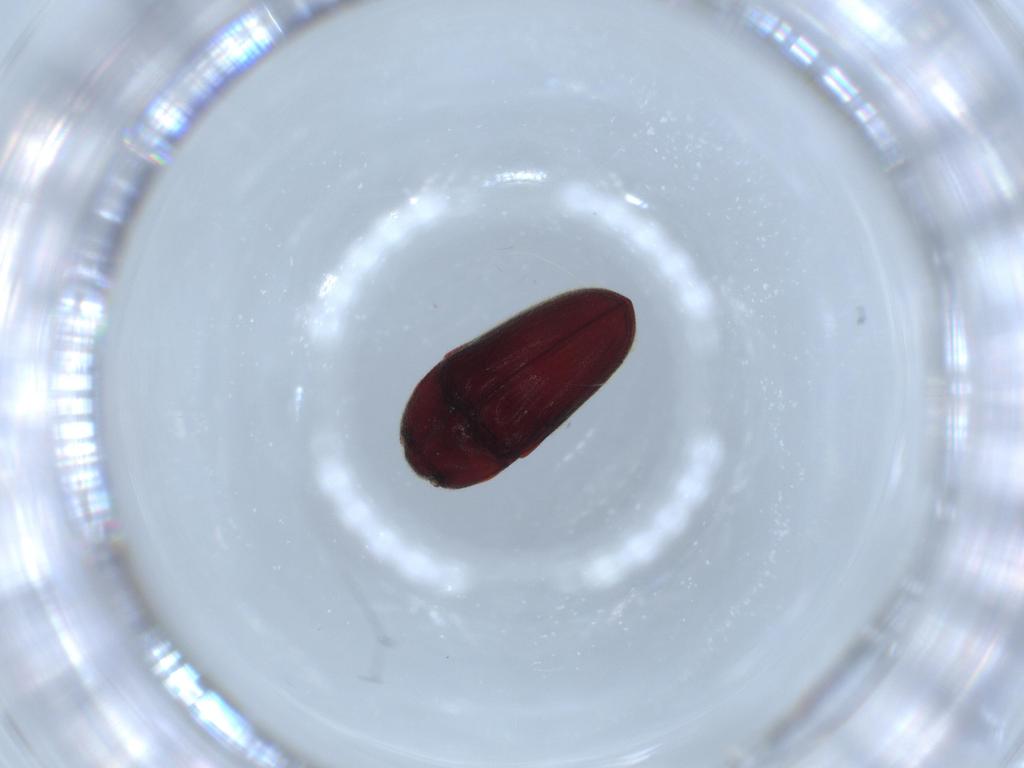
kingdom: Animalia
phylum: Arthropoda
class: Insecta
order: Coleoptera
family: Throscidae
